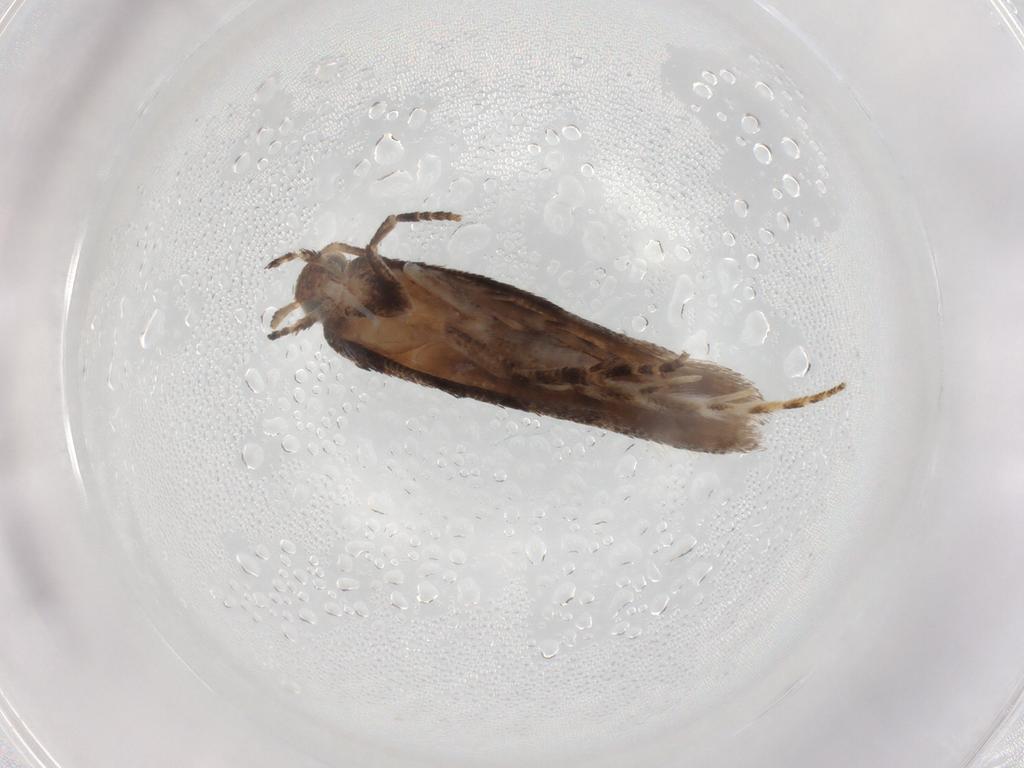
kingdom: Animalia
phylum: Arthropoda
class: Insecta
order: Lepidoptera
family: Gelechiidae
